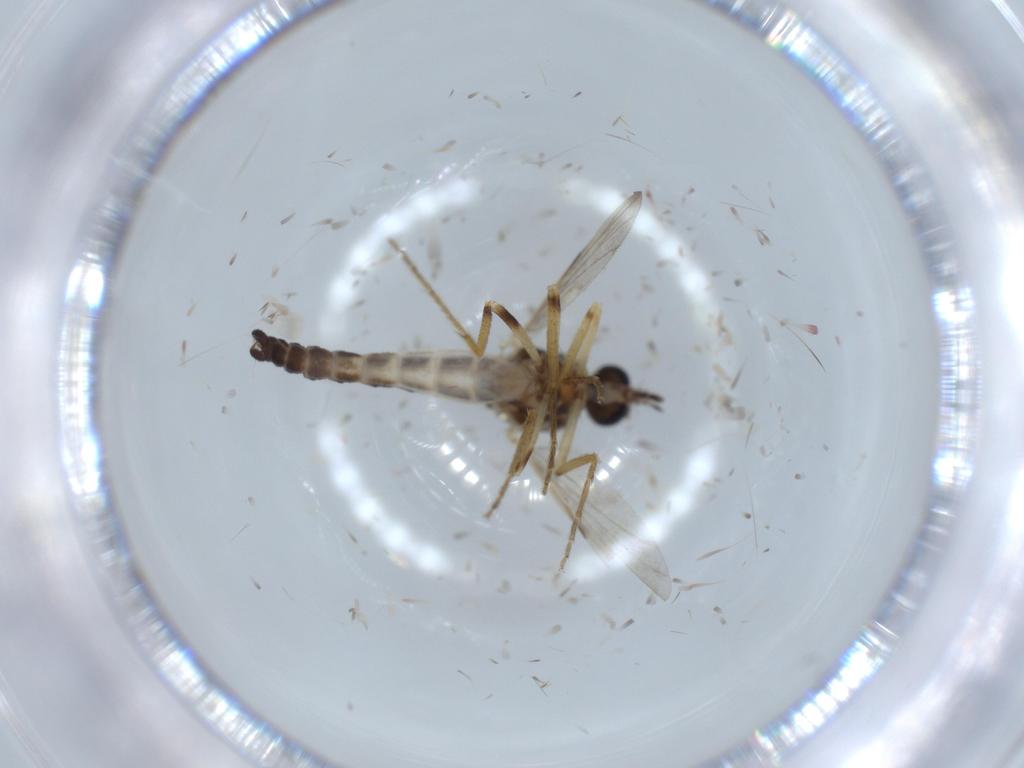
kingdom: Animalia
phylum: Arthropoda
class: Insecta
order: Diptera
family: Ceratopogonidae
